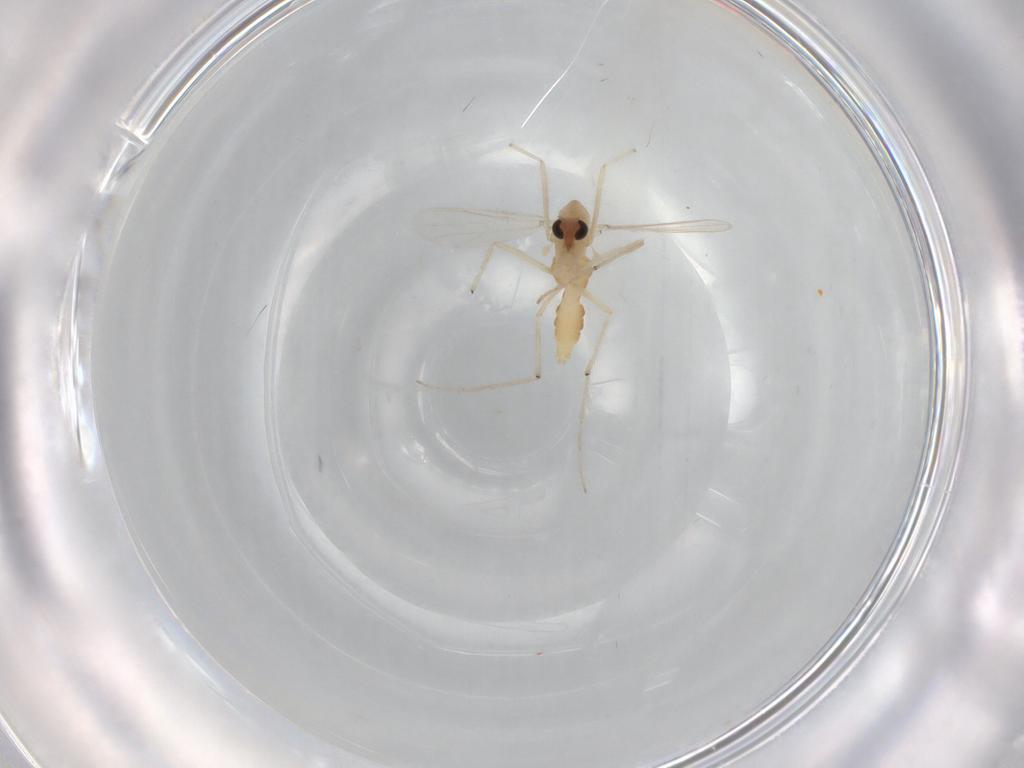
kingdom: Animalia
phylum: Arthropoda
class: Insecta
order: Diptera
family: Chironomidae
